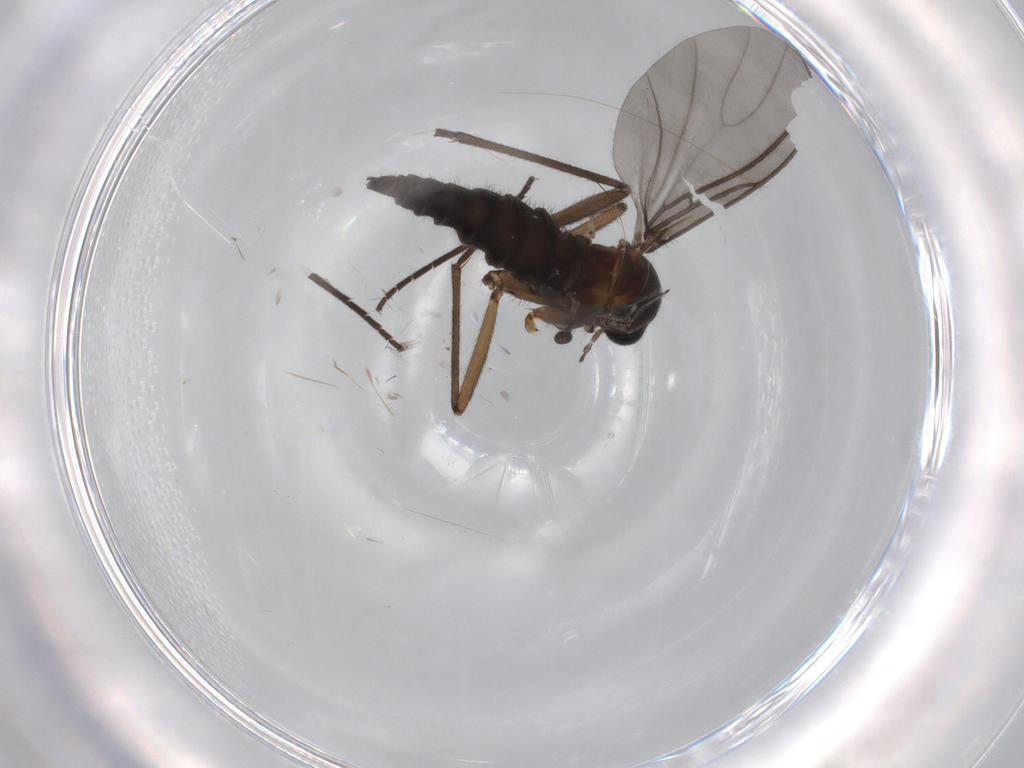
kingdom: Animalia
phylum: Arthropoda
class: Insecta
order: Diptera
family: Sciaridae
